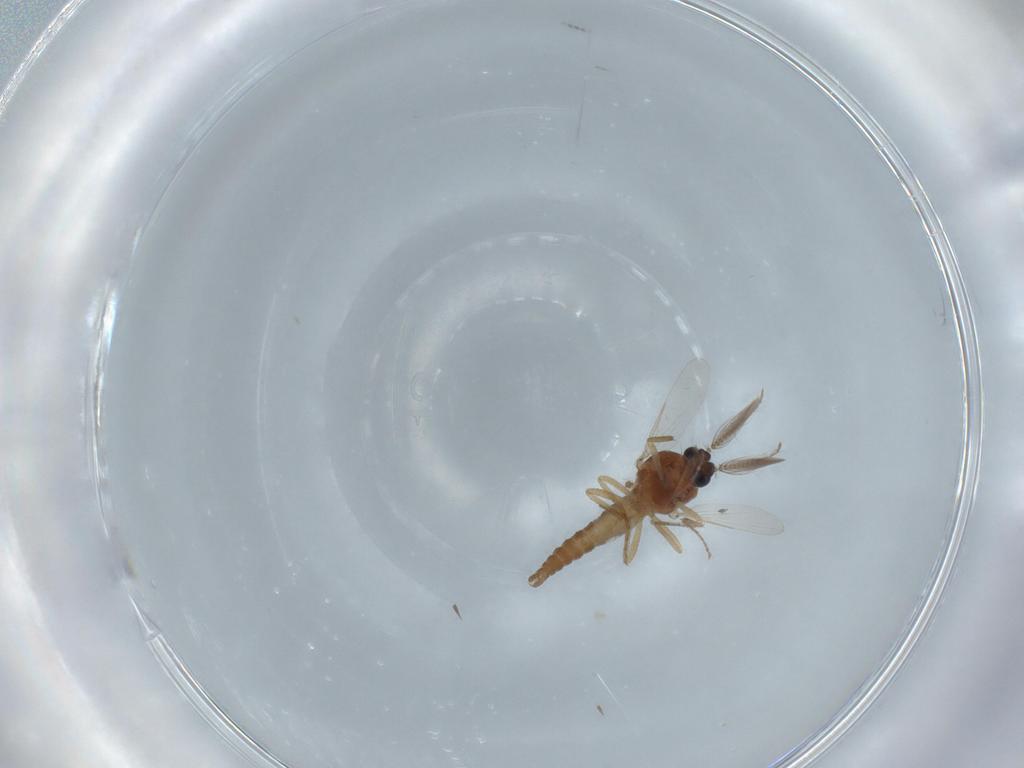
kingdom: Animalia
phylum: Arthropoda
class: Insecta
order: Diptera
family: Ceratopogonidae
